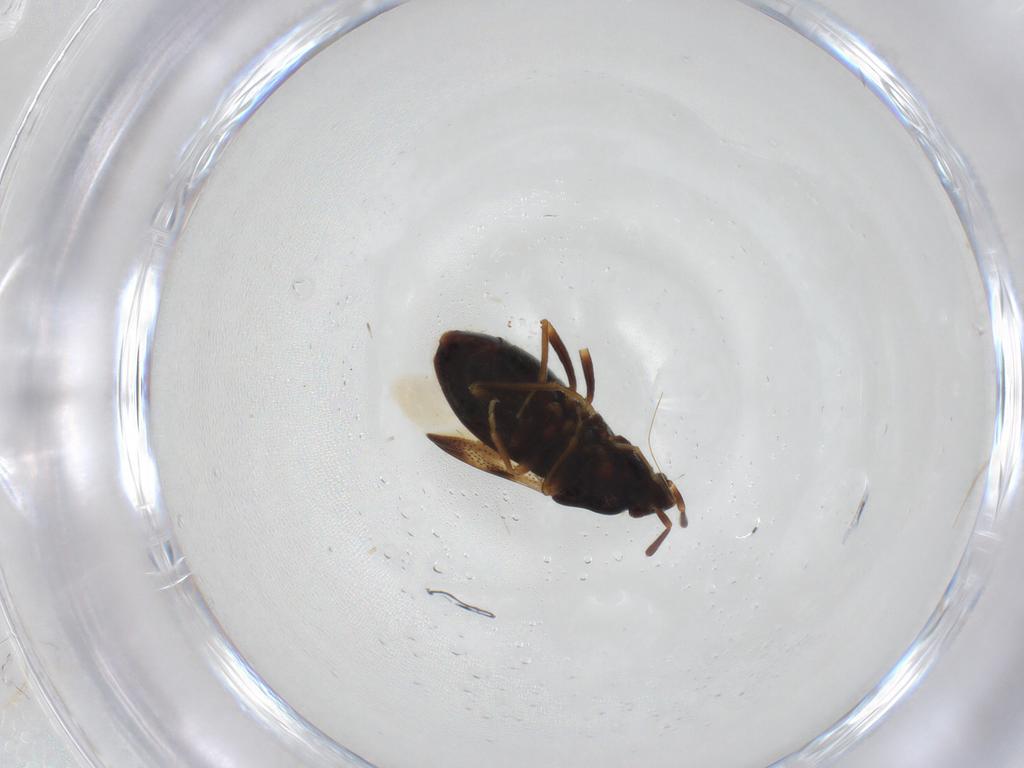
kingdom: Animalia
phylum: Arthropoda
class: Insecta
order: Hemiptera
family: Rhyparochromidae
